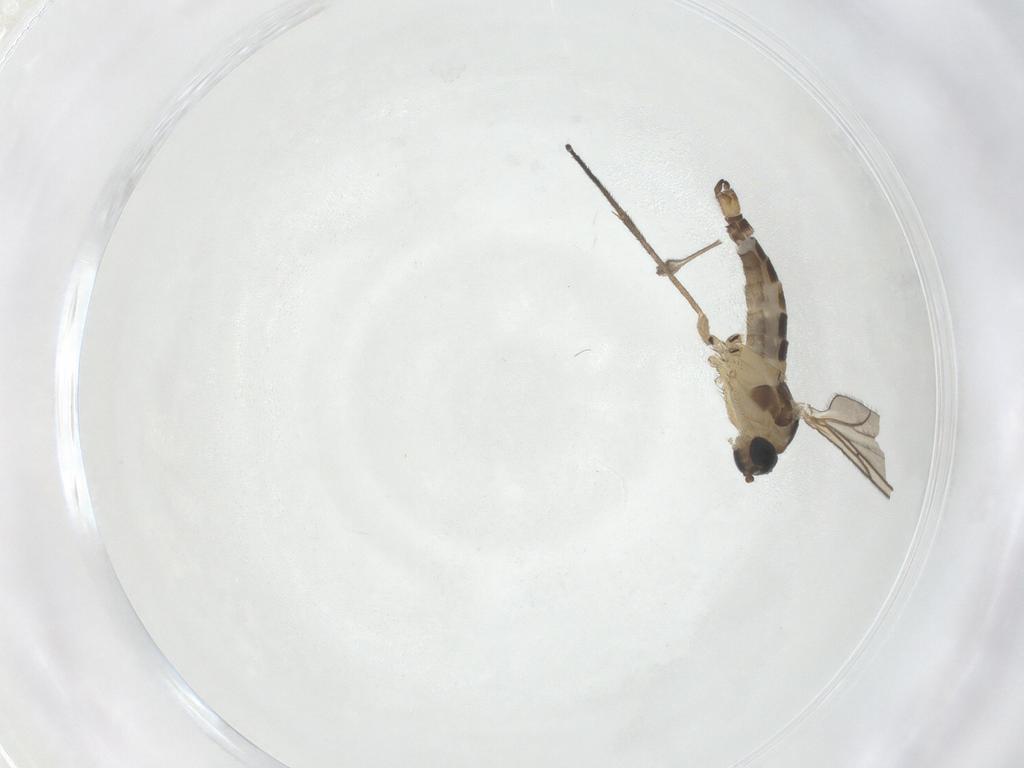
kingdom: Animalia
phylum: Arthropoda
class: Insecta
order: Diptera
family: Limoniidae
